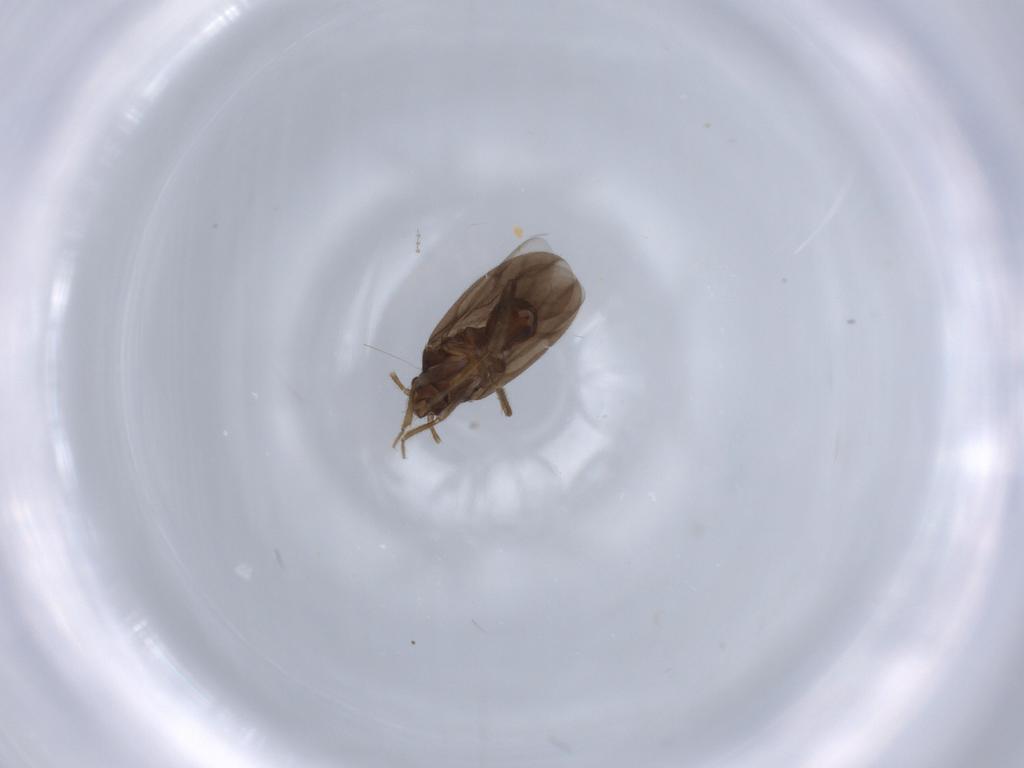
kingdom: Animalia
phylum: Arthropoda
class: Insecta
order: Hemiptera
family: Ceratocombidae
